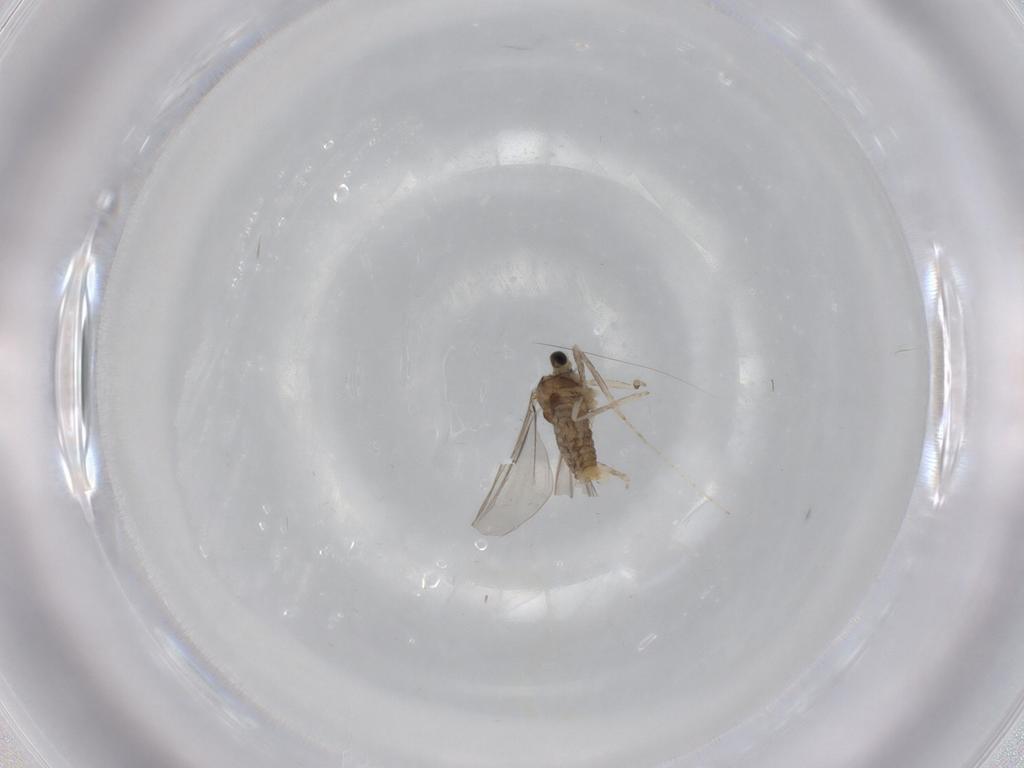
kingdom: Animalia
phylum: Arthropoda
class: Insecta
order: Diptera
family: Cecidomyiidae
